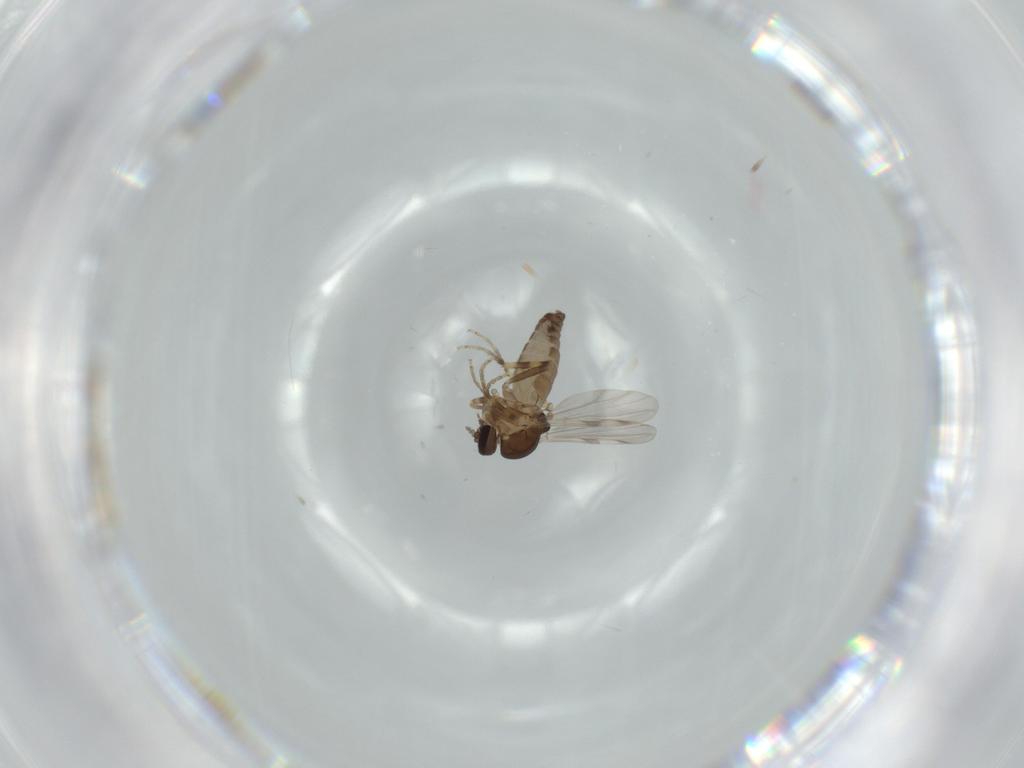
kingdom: Animalia
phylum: Arthropoda
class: Insecta
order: Diptera
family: Ceratopogonidae
